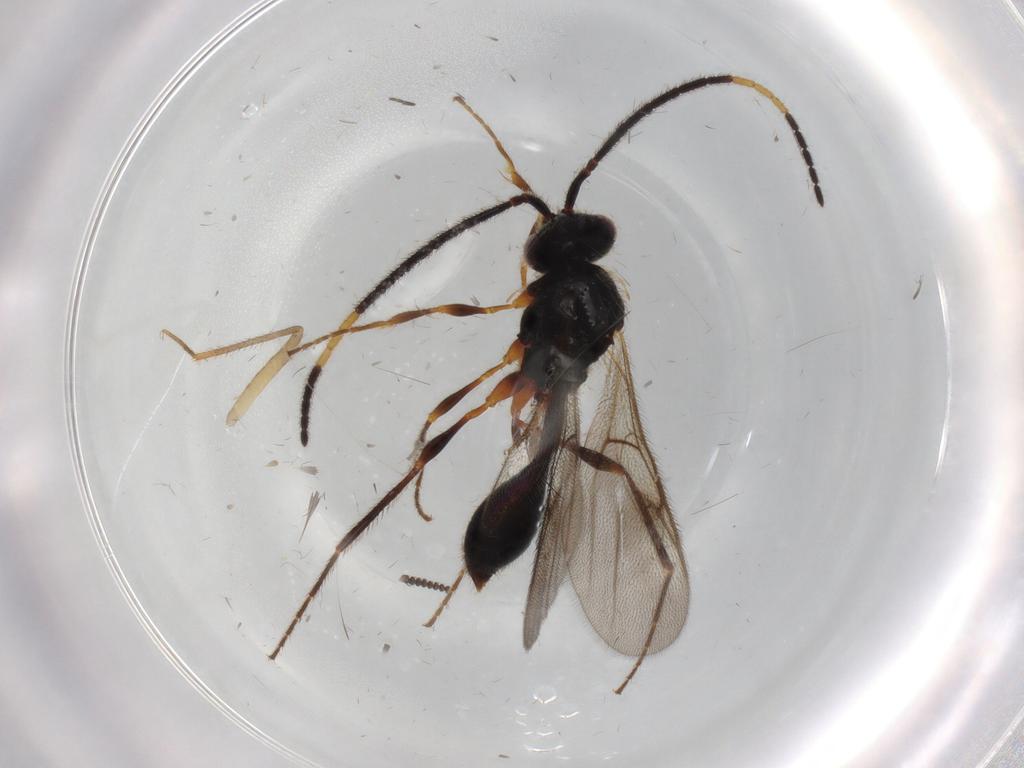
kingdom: Animalia
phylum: Arthropoda
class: Insecta
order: Hymenoptera
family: Diapriidae
